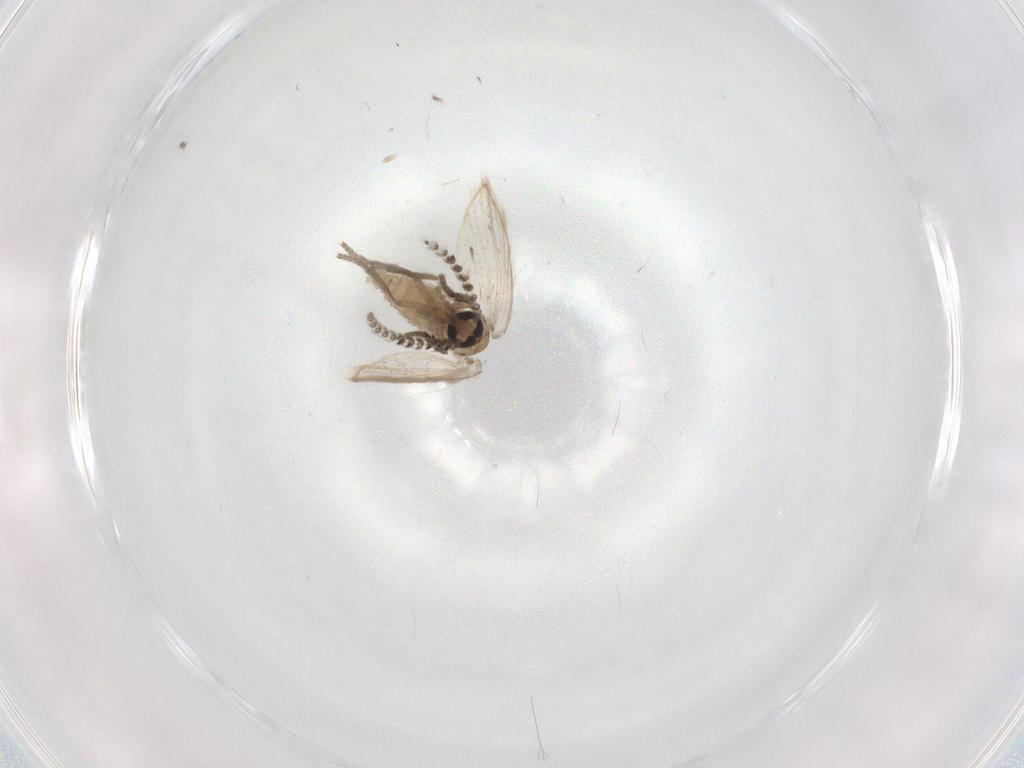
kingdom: Animalia
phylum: Arthropoda
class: Insecta
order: Diptera
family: Psychodidae
